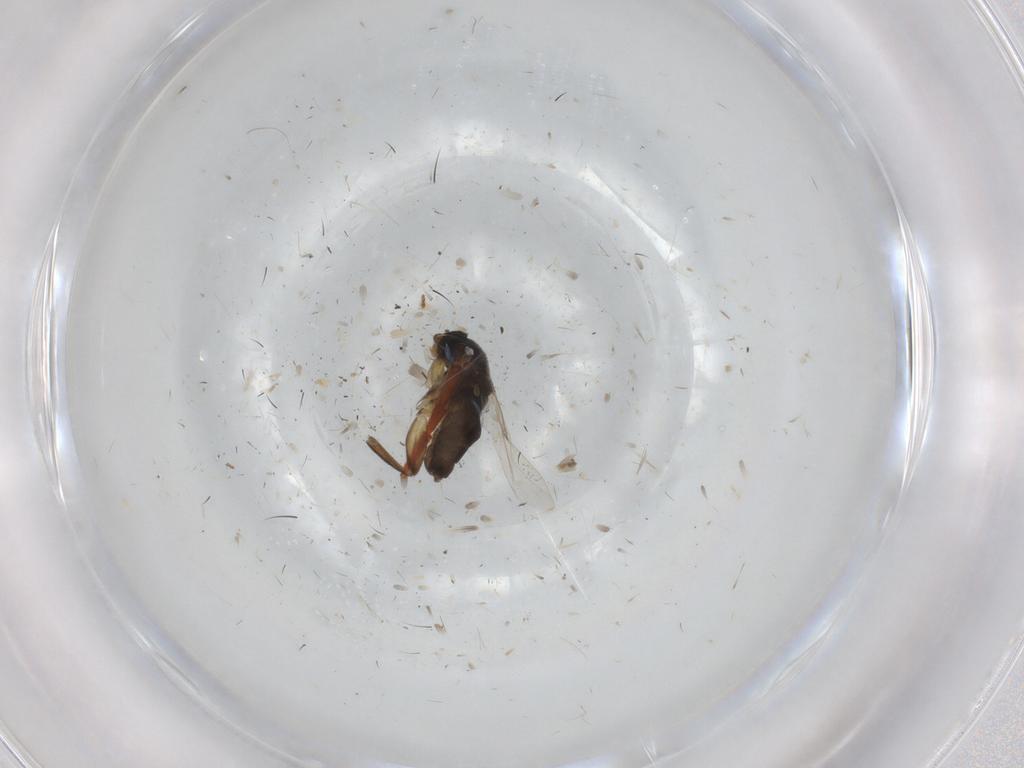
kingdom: Animalia
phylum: Arthropoda
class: Insecta
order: Diptera
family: Phoridae
